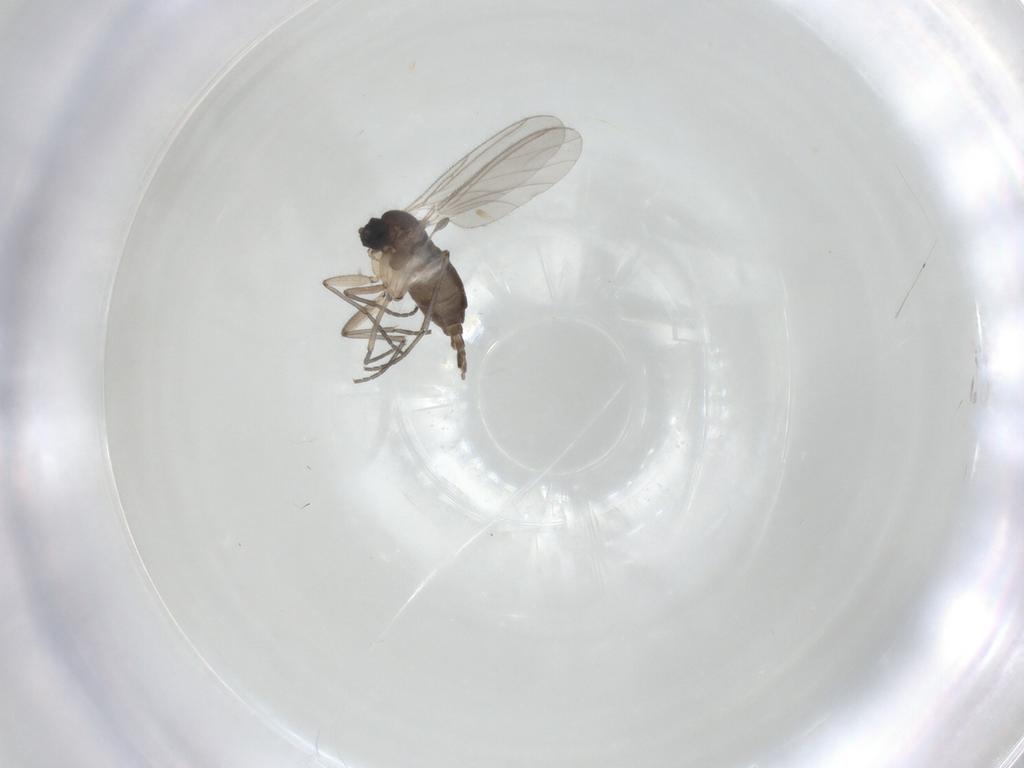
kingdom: Animalia
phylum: Arthropoda
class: Insecta
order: Diptera
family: Sciaridae
